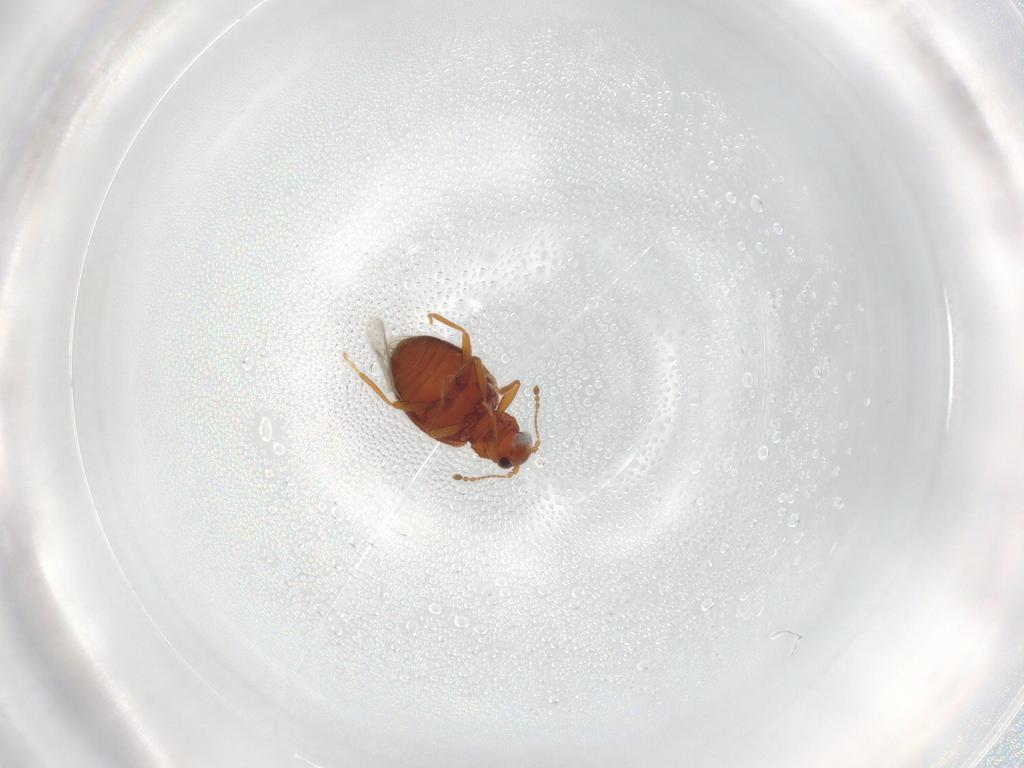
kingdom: Animalia
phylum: Arthropoda
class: Insecta
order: Coleoptera
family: Latridiidae
